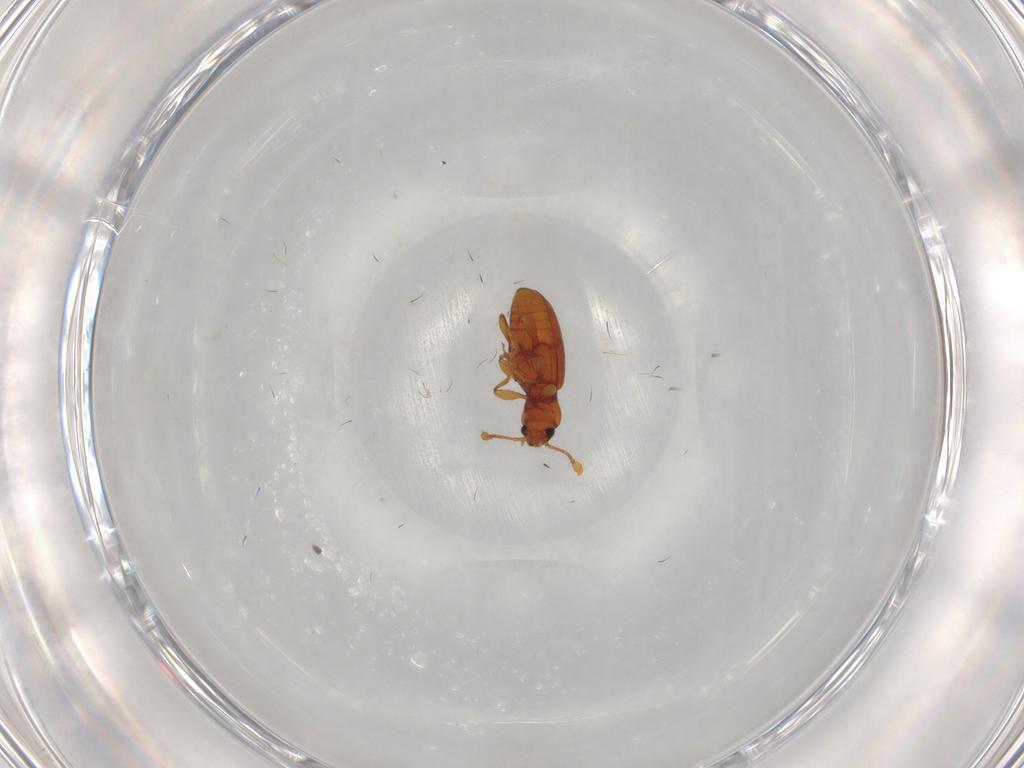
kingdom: Animalia
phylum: Arthropoda
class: Insecta
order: Coleoptera
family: Endomychidae
